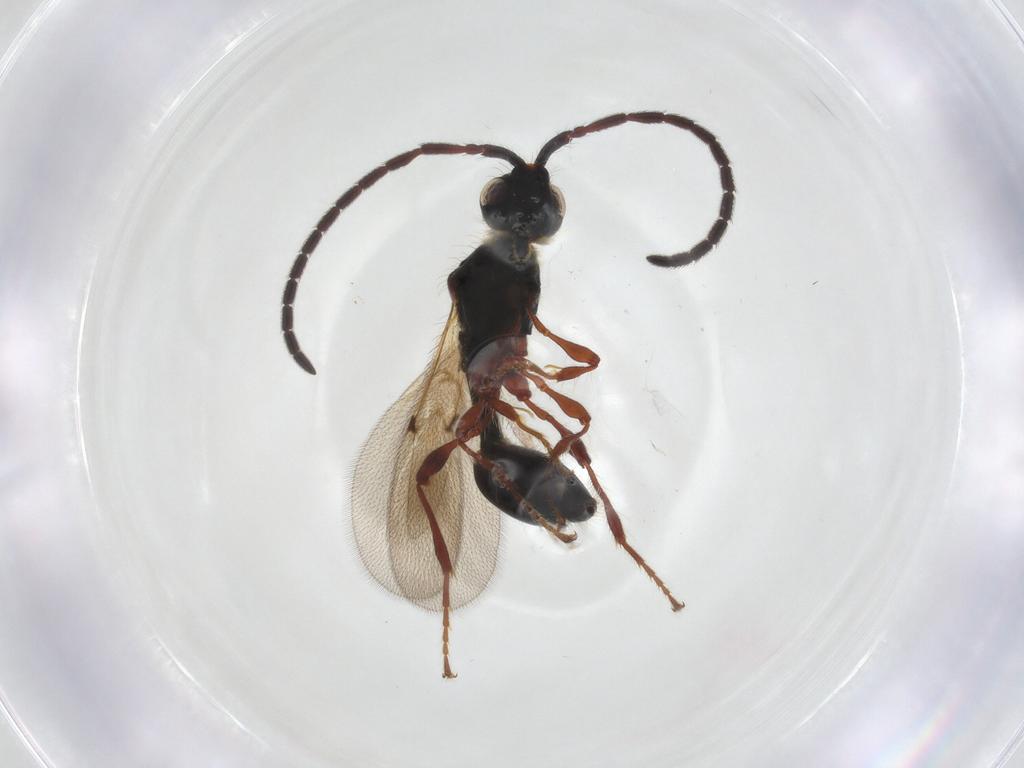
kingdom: Animalia
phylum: Arthropoda
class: Insecta
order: Hymenoptera
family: Diapriidae
